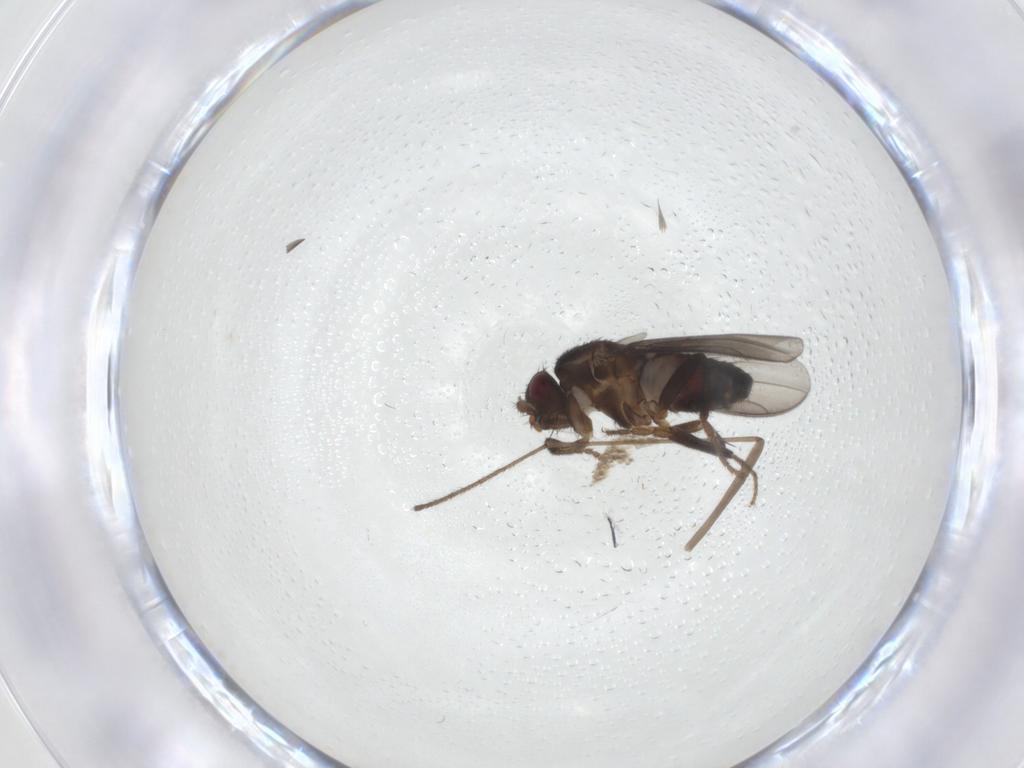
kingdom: Animalia
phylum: Arthropoda
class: Insecta
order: Diptera
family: Sphaeroceridae
